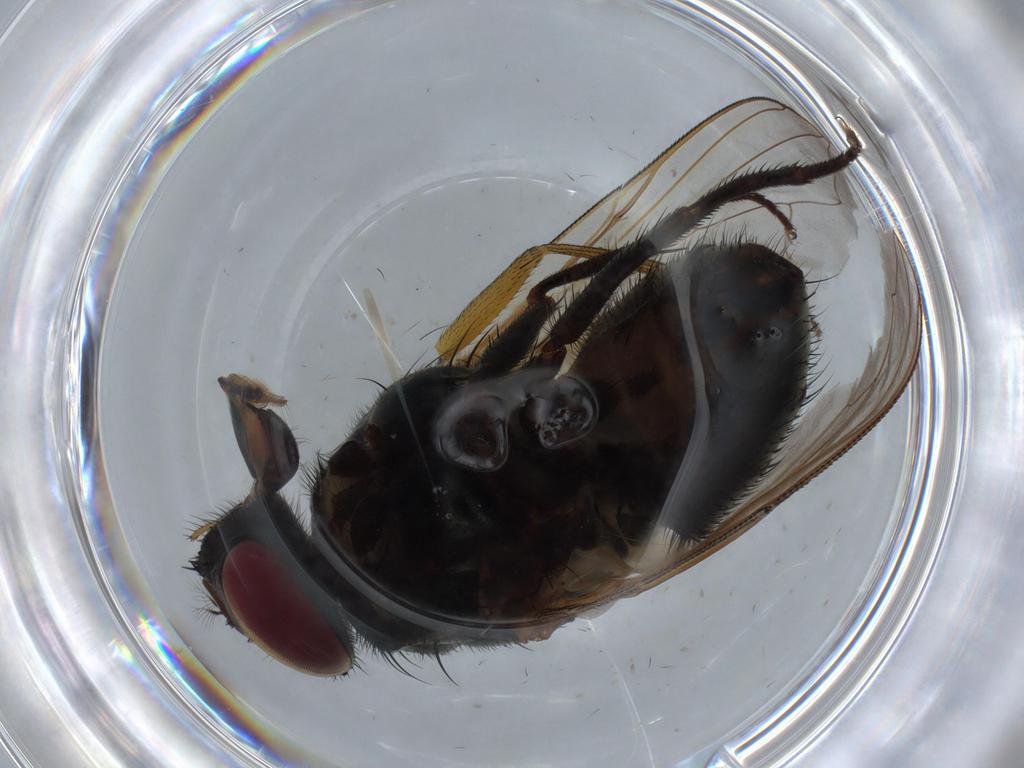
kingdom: Animalia
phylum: Arthropoda
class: Insecta
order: Diptera
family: Muscidae
